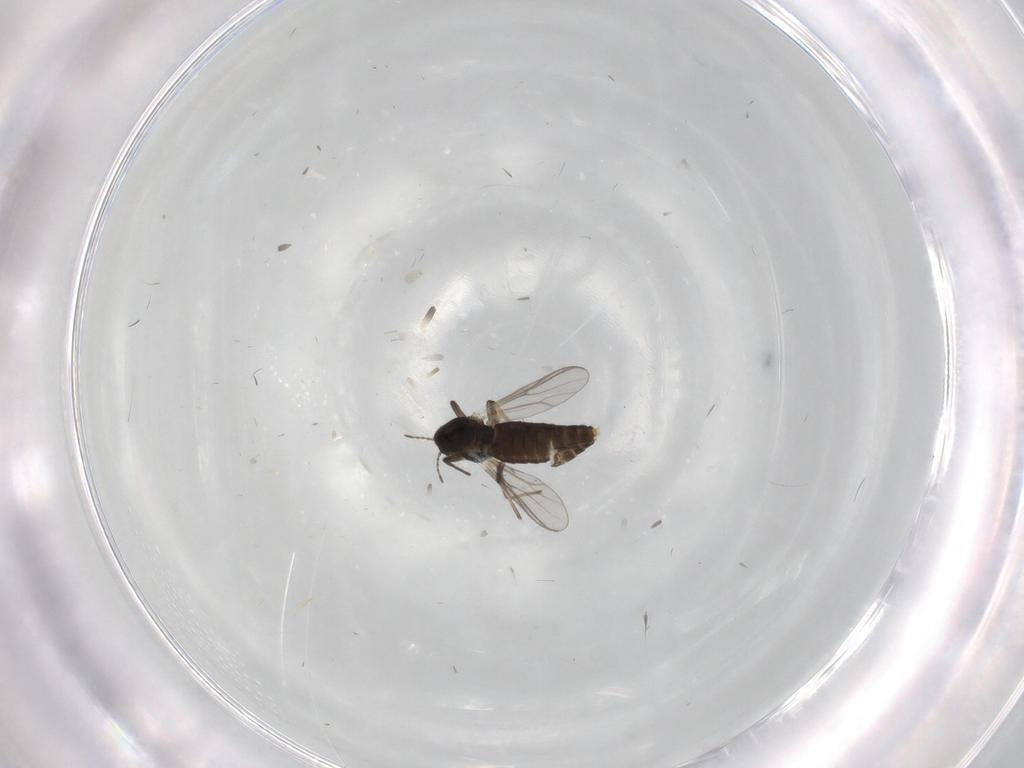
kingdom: Animalia
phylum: Arthropoda
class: Insecta
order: Diptera
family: Chironomidae
